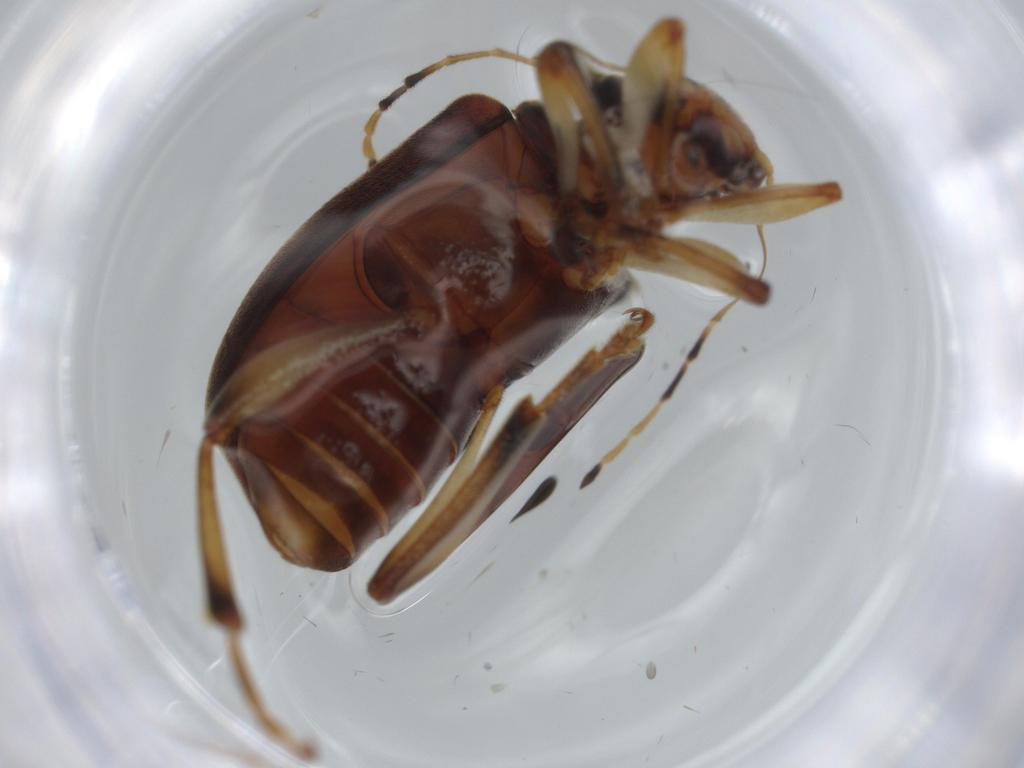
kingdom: Animalia
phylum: Arthropoda
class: Insecta
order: Coleoptera
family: Chrysomelidae
